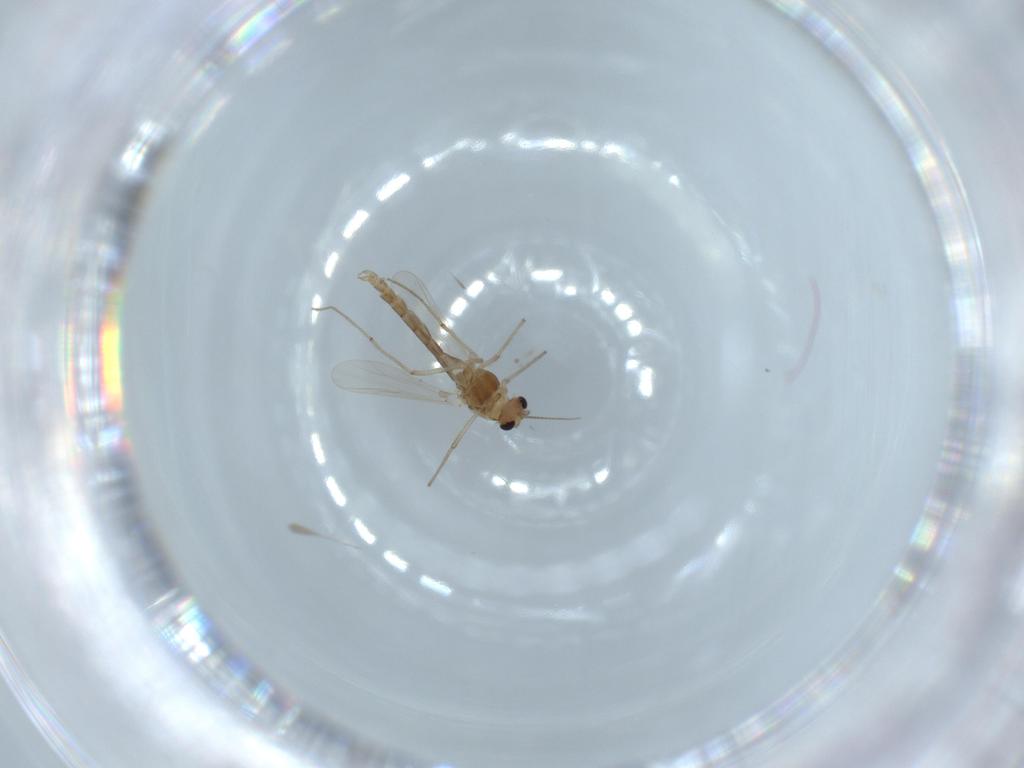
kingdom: Animalia
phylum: Arthropoda
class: Insecta
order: Diptera
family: Chironomidae
